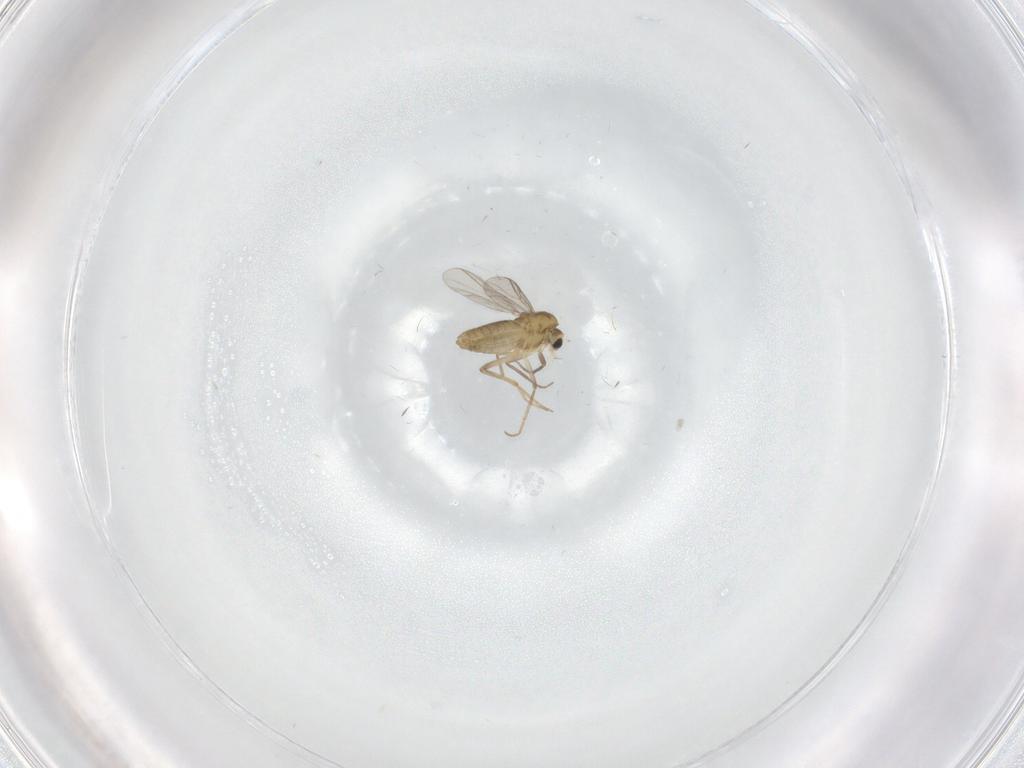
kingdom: Animalia
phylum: Arthropoda
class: Insecta
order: Diptera
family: Chironomidae
